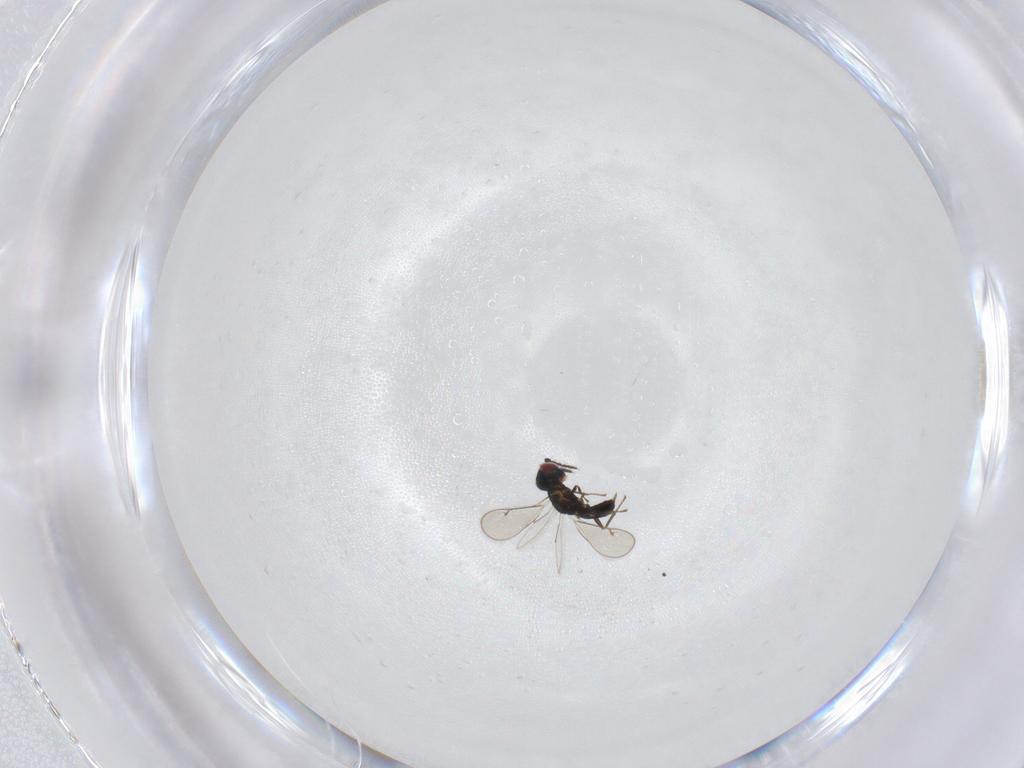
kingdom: Animalia
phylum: Arthropoda
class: Insecta
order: Hymenoptera
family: Eulophidae
